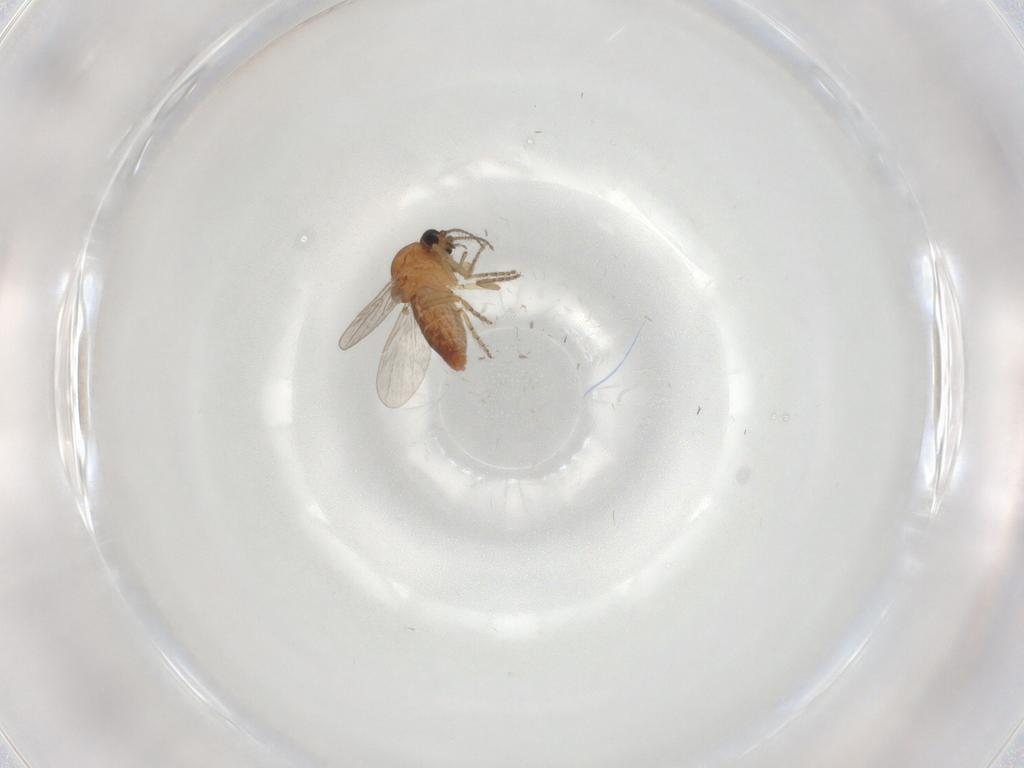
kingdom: Animalia
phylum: Arthropoda
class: Insecta
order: Diptera
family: Ceratopogonidae
